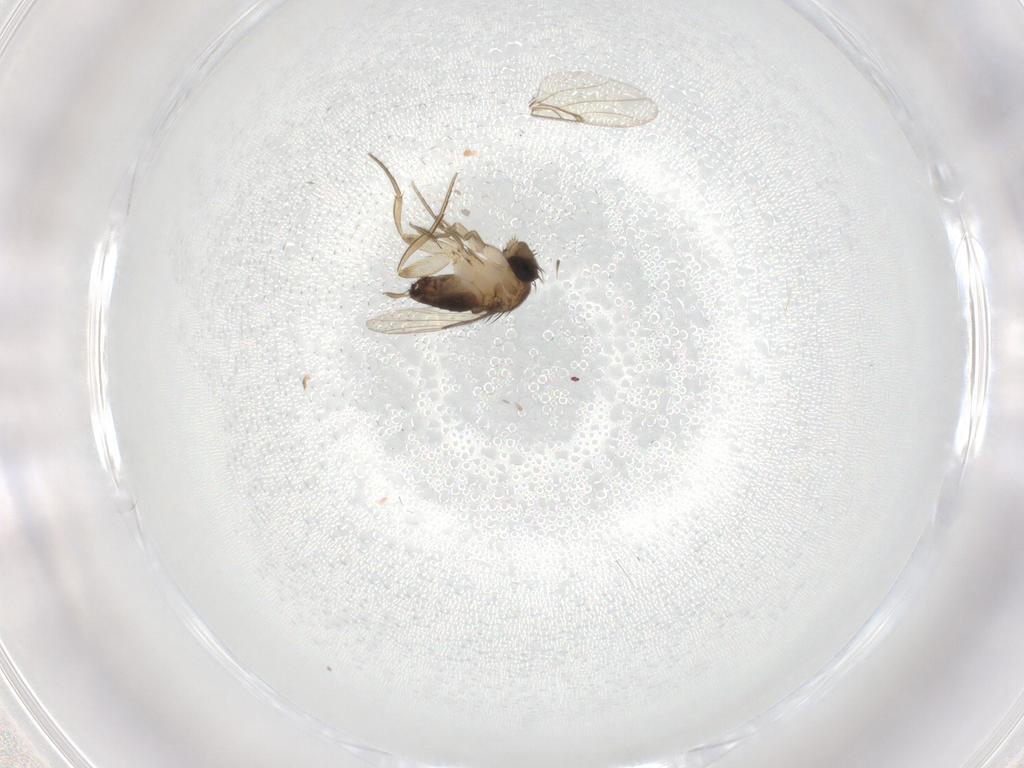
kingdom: Animalia
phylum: Arthropoda
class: Insecta
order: Diptera
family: Chironomidae
